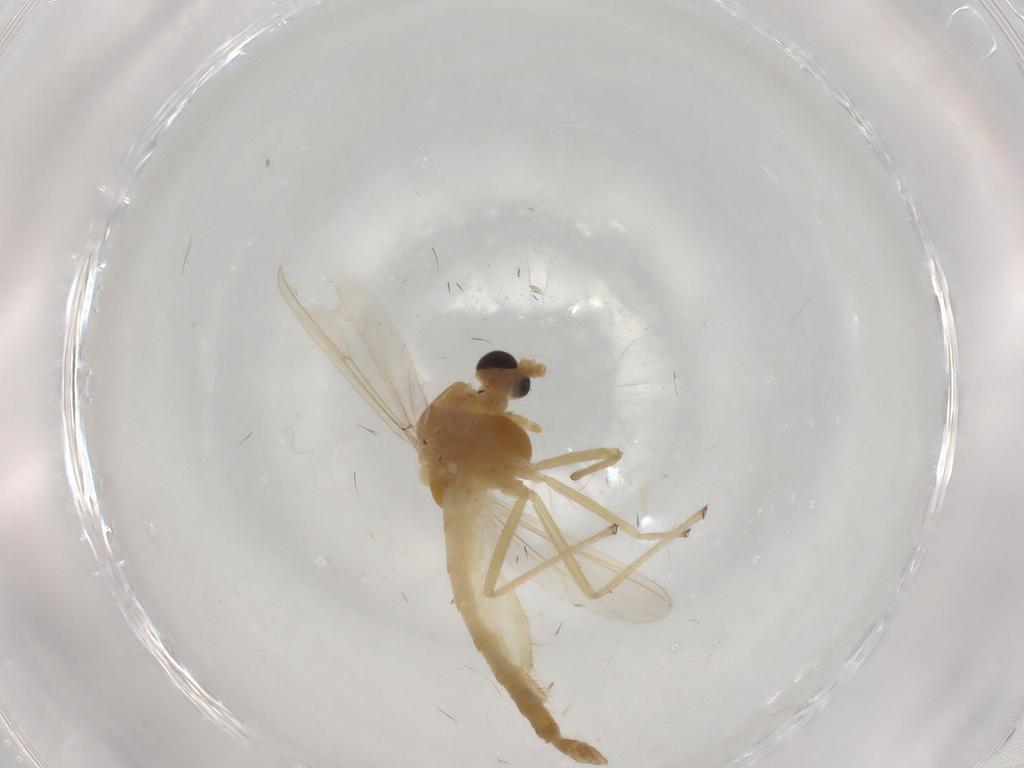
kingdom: Animalia
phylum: Arthropoda
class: Insecta
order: Diptera
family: Chironomidae
